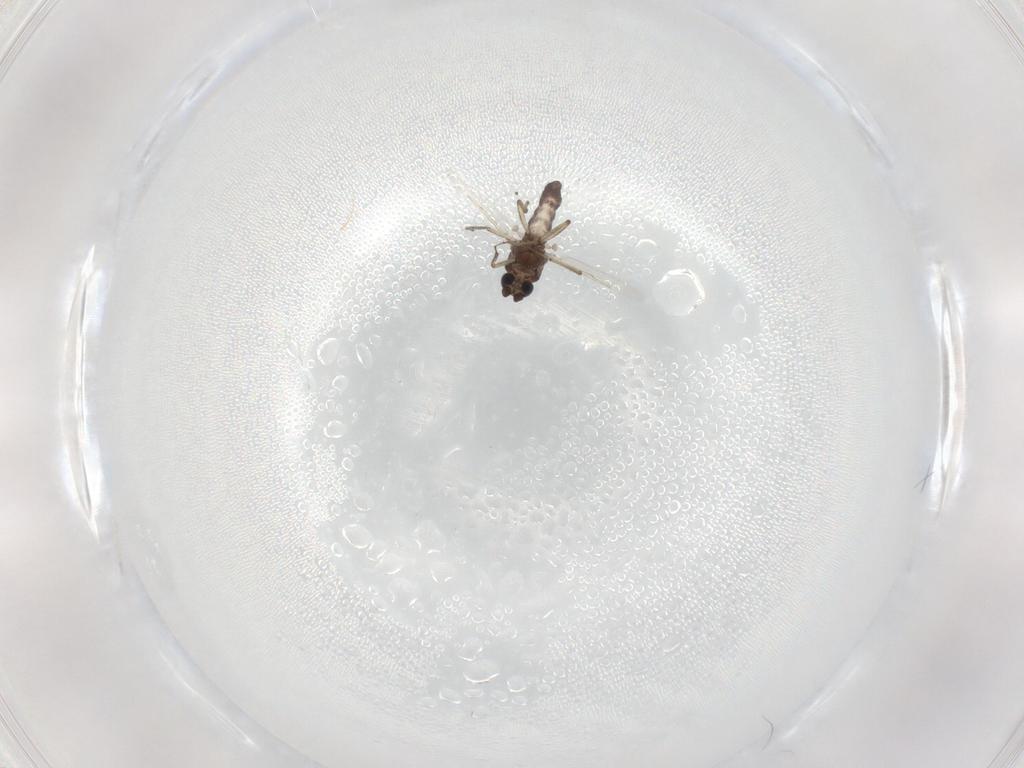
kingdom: Animalia
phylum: Arthropoda
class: Insecta
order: Diptera
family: Ceratopogonidae
